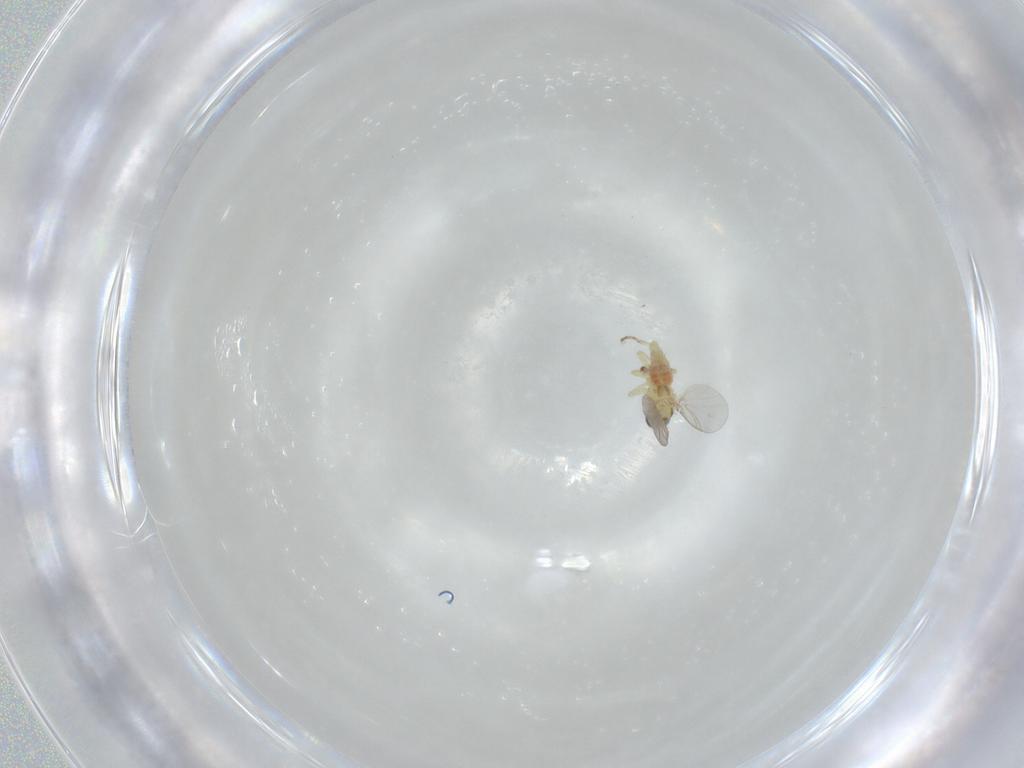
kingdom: Animalia
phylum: Arthropoda
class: Insecta
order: Diptera
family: Agromyzidae
